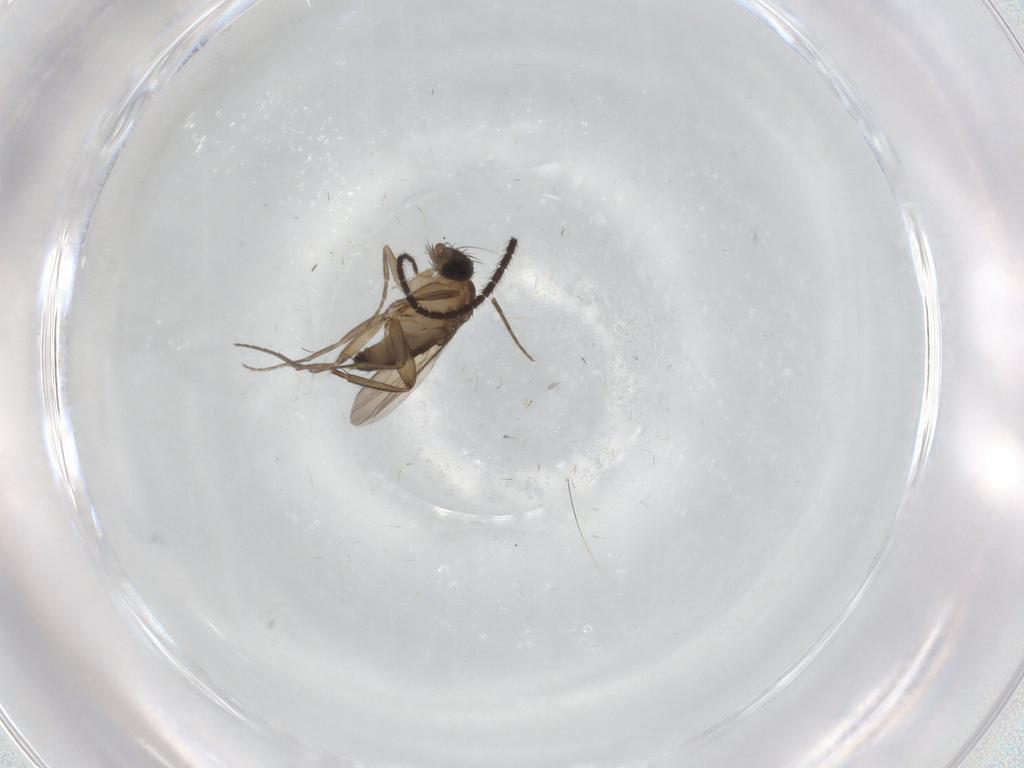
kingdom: Animalia
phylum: Arthropoda
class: Insecta
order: Diptera
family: Phoridae
